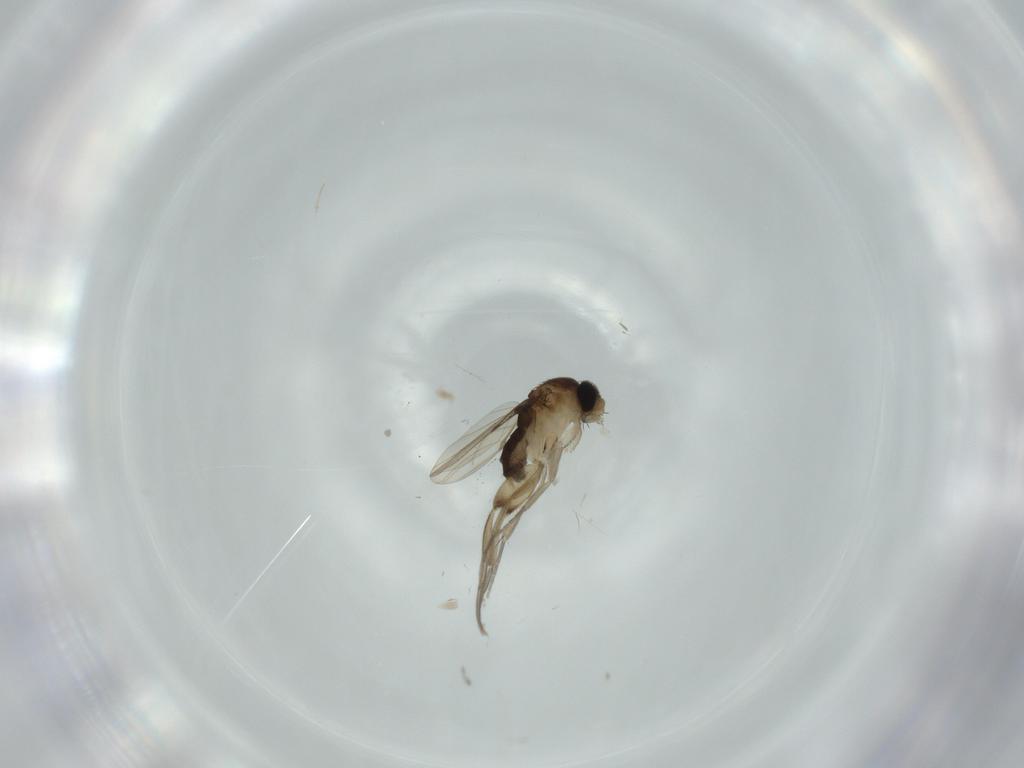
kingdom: Animalia
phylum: Arthropoda
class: Insecta
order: Diptera
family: Phoridae
